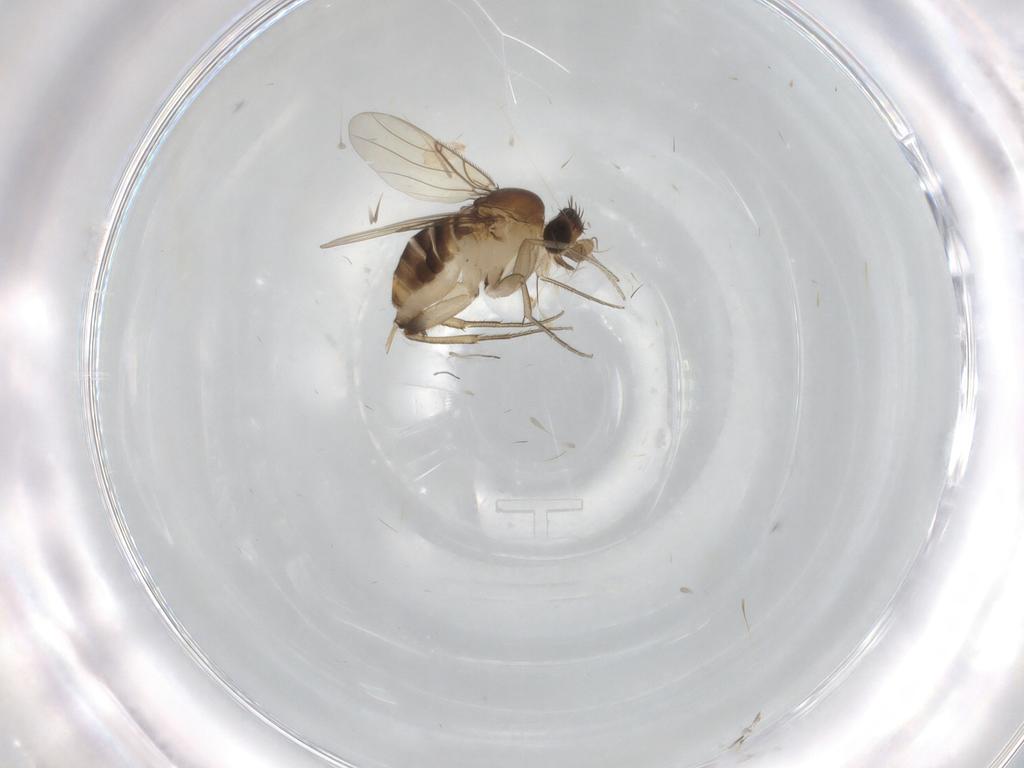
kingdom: Animalia
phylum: Arthropoda
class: Insecta
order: Diptera
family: Phoridae
